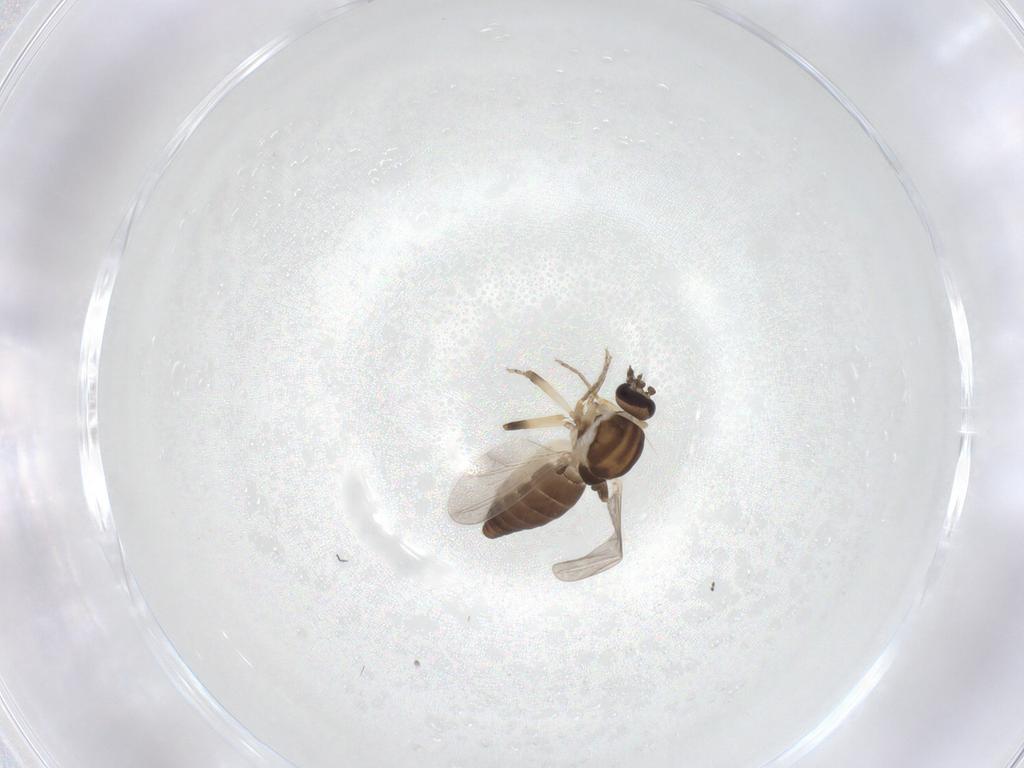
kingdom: Animalia
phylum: Arthropoda
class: Insecta
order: Diptera
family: Ceratopogonidae
